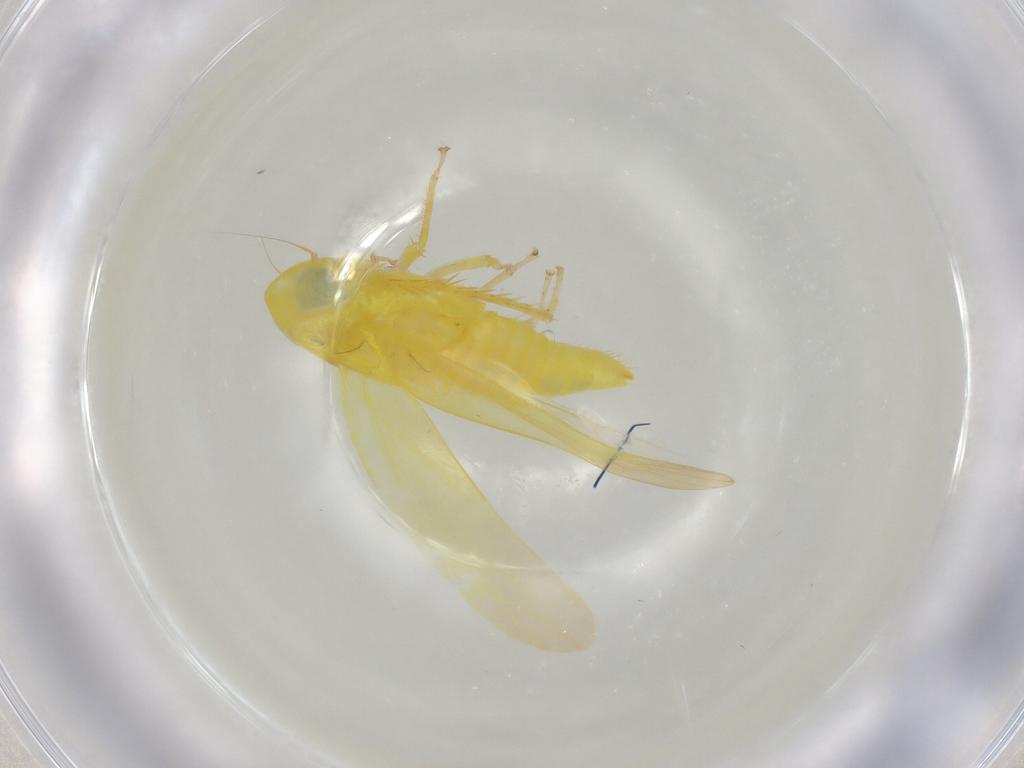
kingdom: Animalia
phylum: Arthropoda
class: Insecta
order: Hemiptera
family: Cicadellidae
